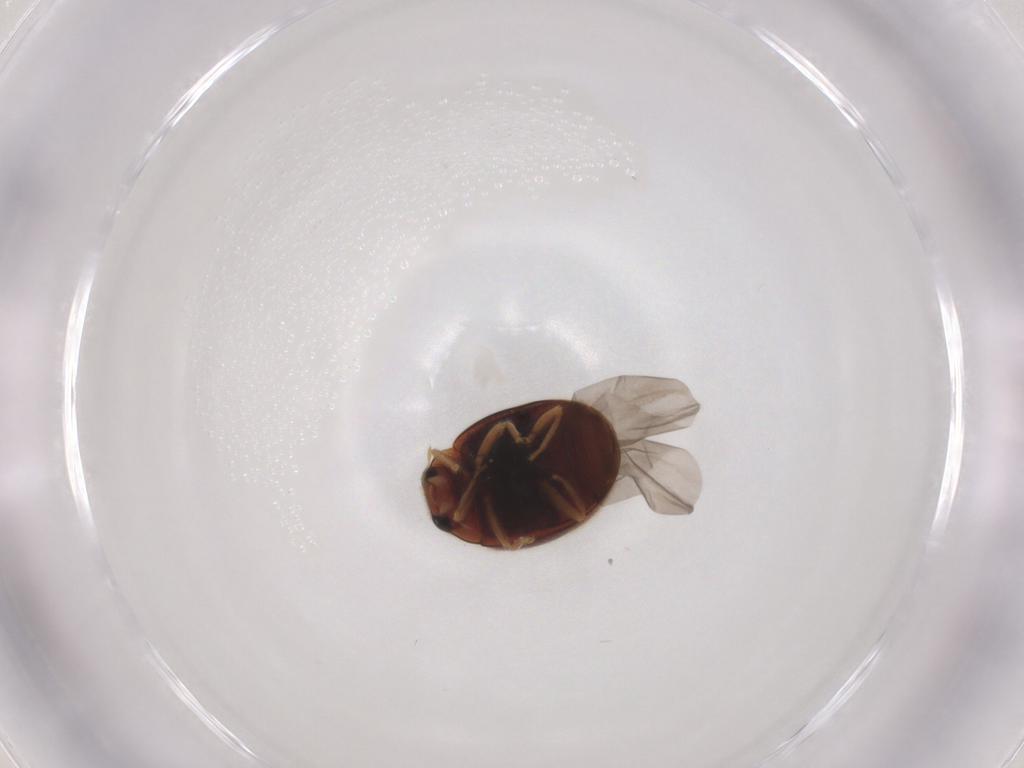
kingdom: Animalia
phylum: Arthropoda
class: Insecta
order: Coleoptera
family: Coccinellidae
